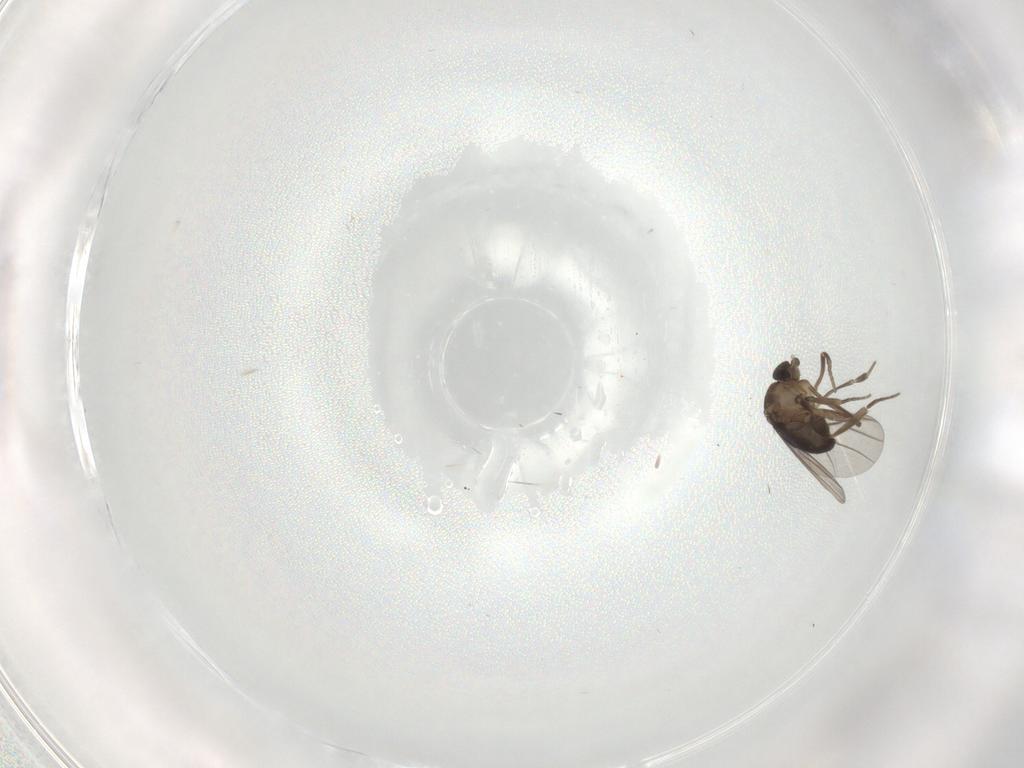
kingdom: Animalia
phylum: Arthropoda
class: Insecta
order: Diptera
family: Phoridae
